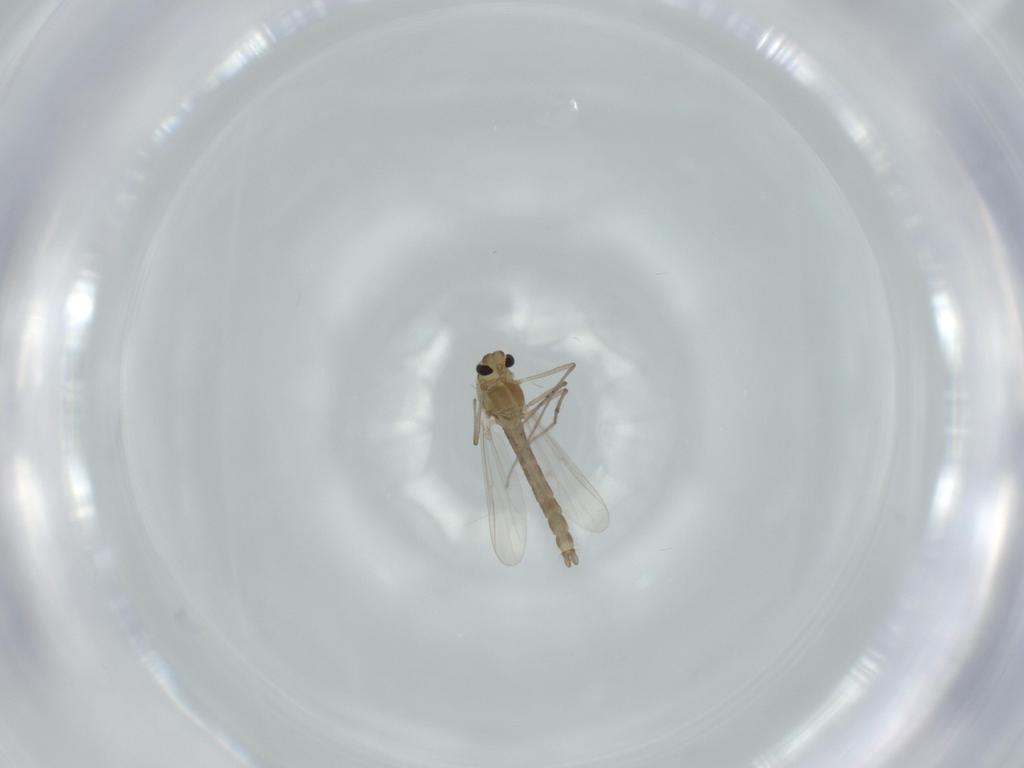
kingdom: Animalia
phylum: Arthropoda
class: Insecta
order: Diptera
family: Chironomidae
